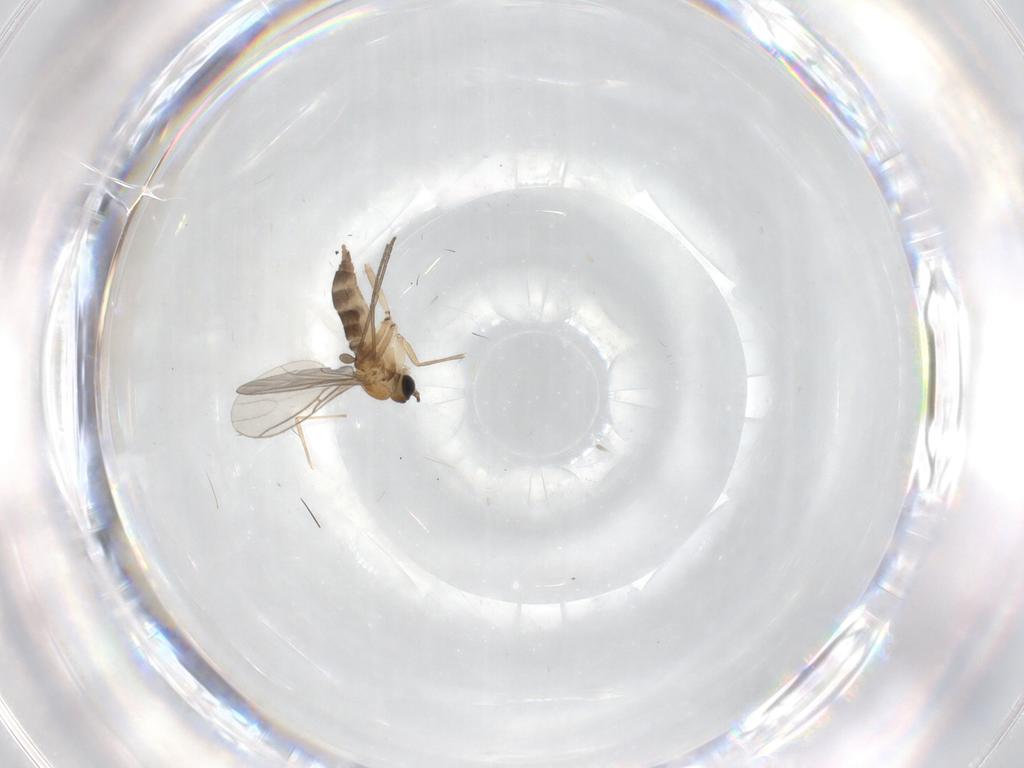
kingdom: Animalia
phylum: Arthropoda
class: Insecta
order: Diptera
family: Sciaridae
